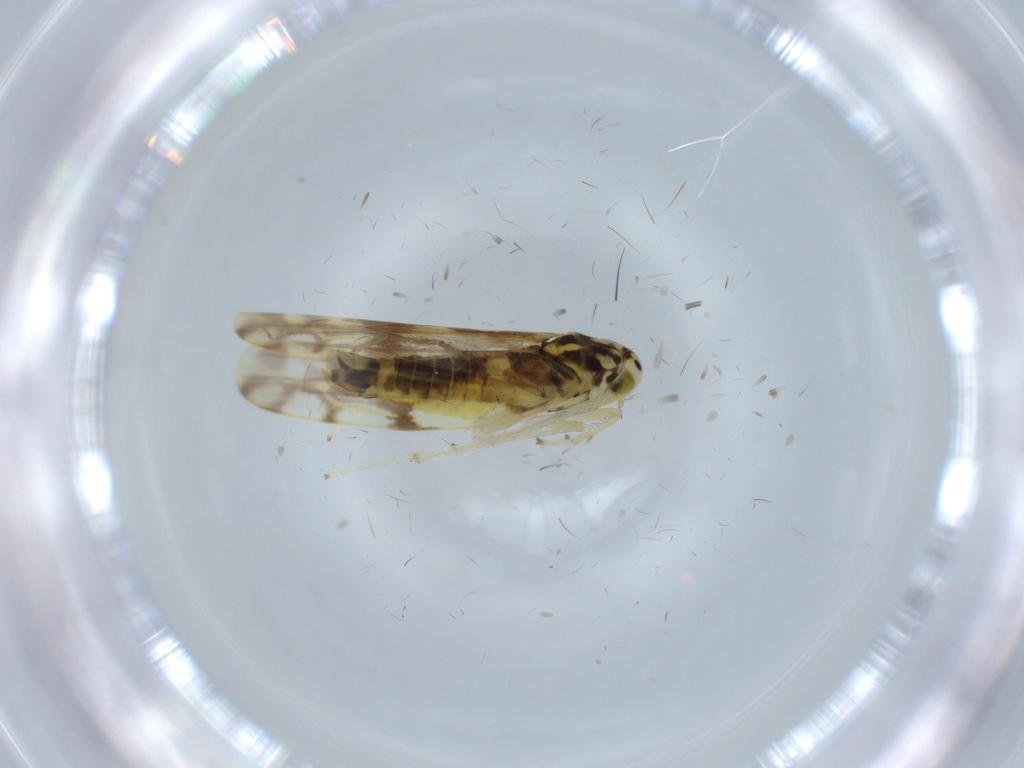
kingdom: Animalia
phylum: Arthropoda
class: Insecta
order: Hemiptera
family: Cicadellidae
